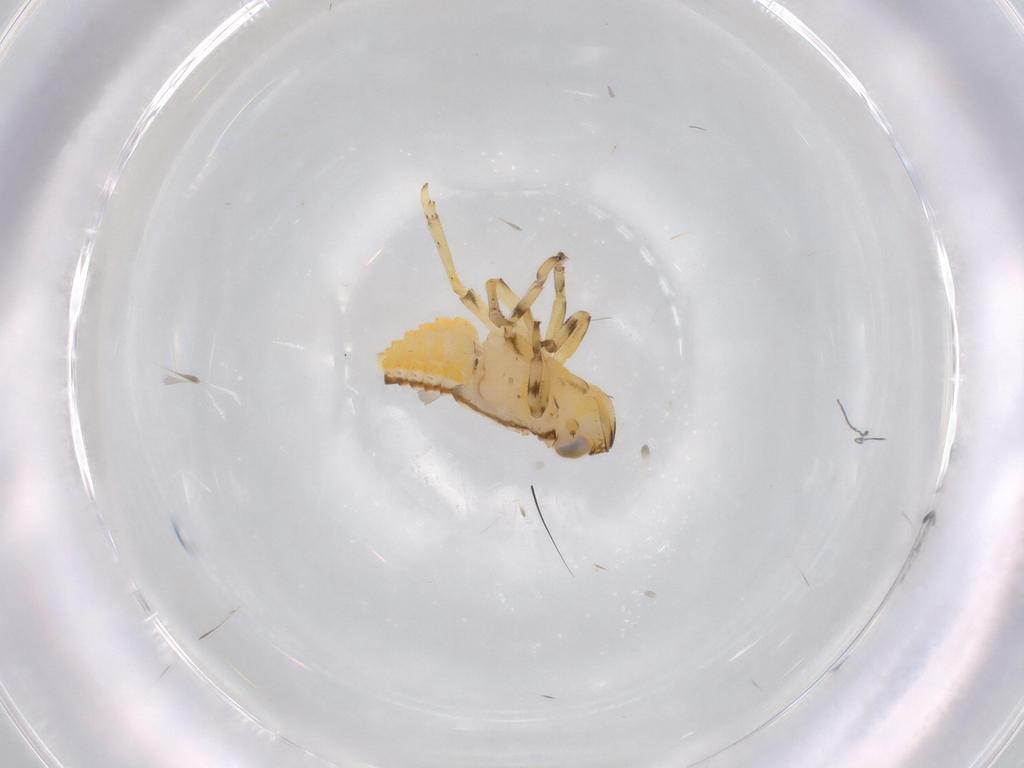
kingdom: Animalia
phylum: Arthropoda
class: Insecta
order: Hemiptera
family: Issidae
